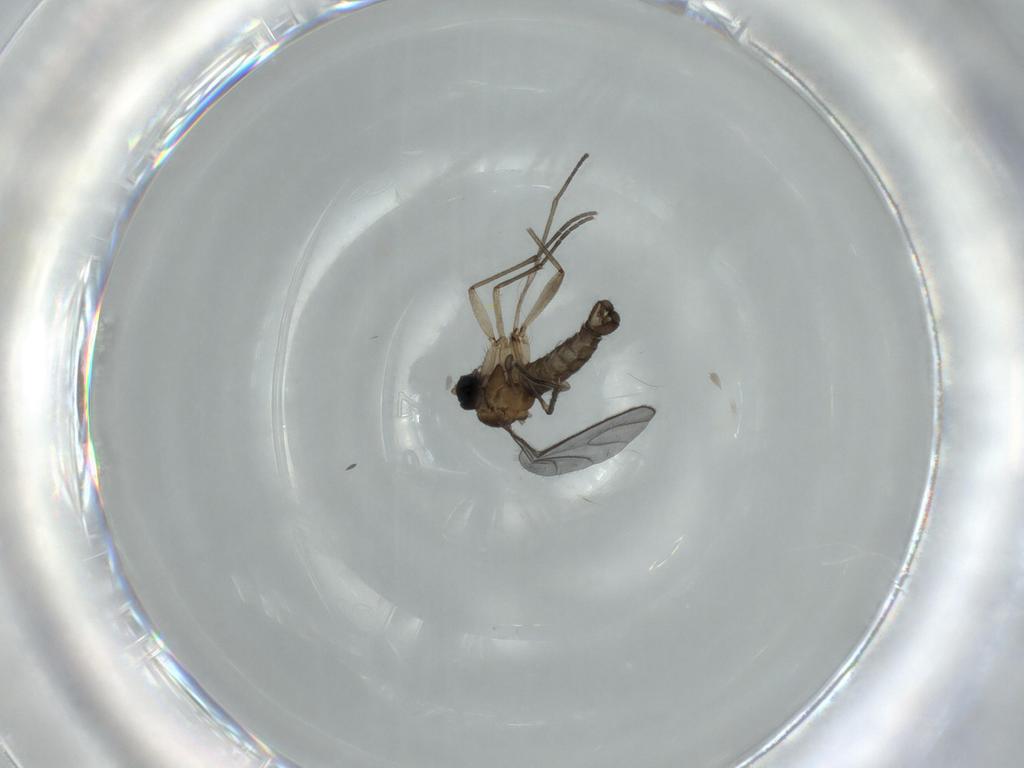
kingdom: Animalia
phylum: Arthropoda
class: Insecta
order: Diptera
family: Sciaridae
